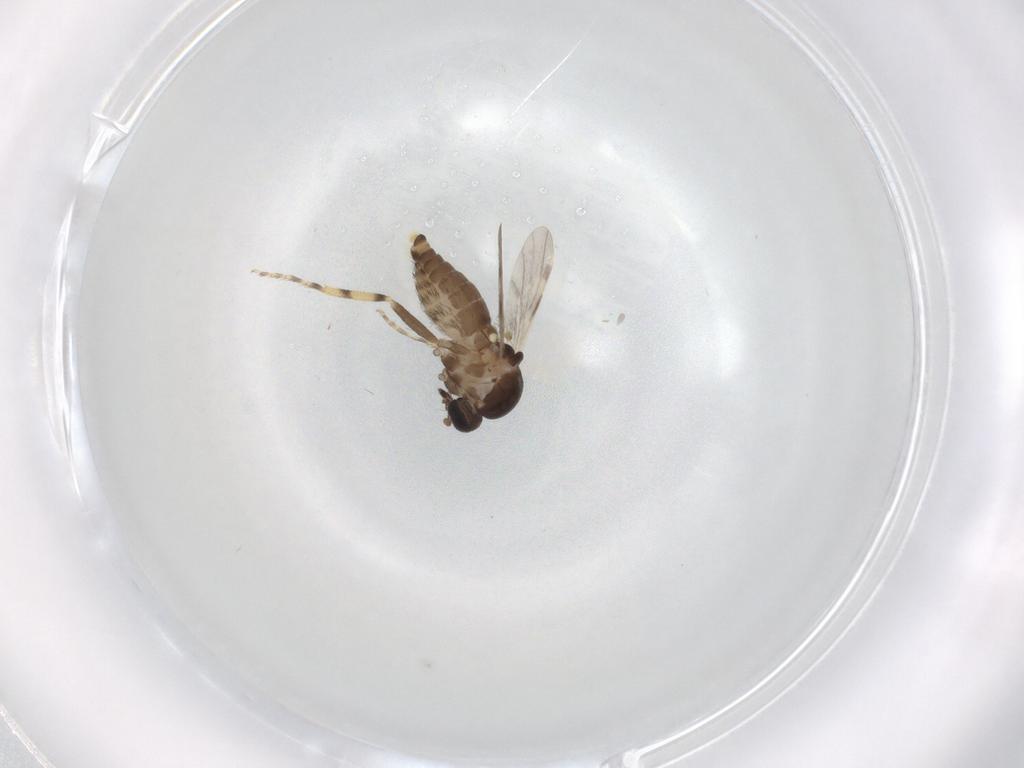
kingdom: Animalia
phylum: Arthropoda
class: Insecta
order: Diptera
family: Ceratopogonidae
